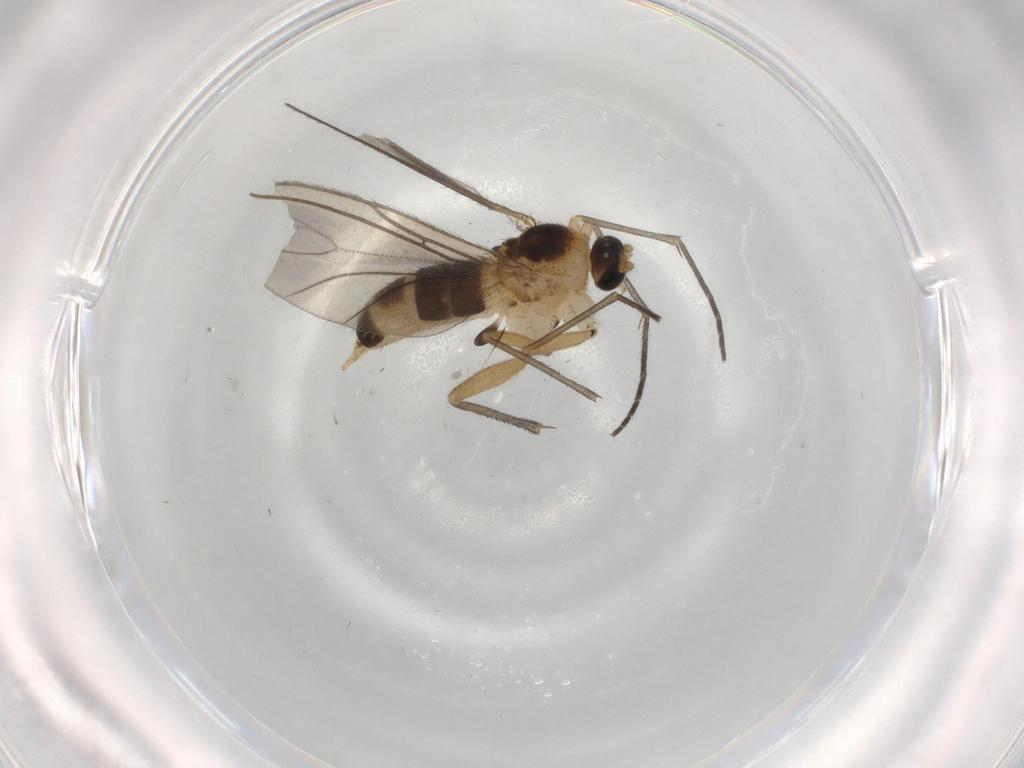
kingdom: Animalia
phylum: Arthropoda
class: Insecta
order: Diptera
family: Sciaridae
